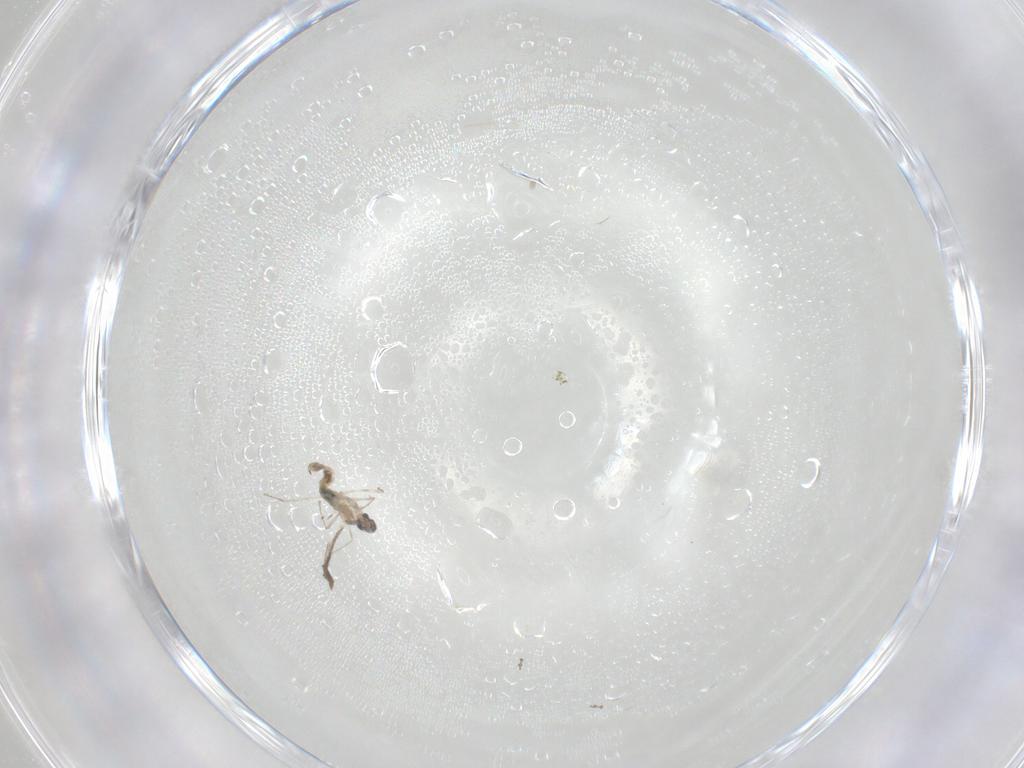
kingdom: Animalia
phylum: Arthropoda
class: Insecta
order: Diptera
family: Cecidomyiidae
